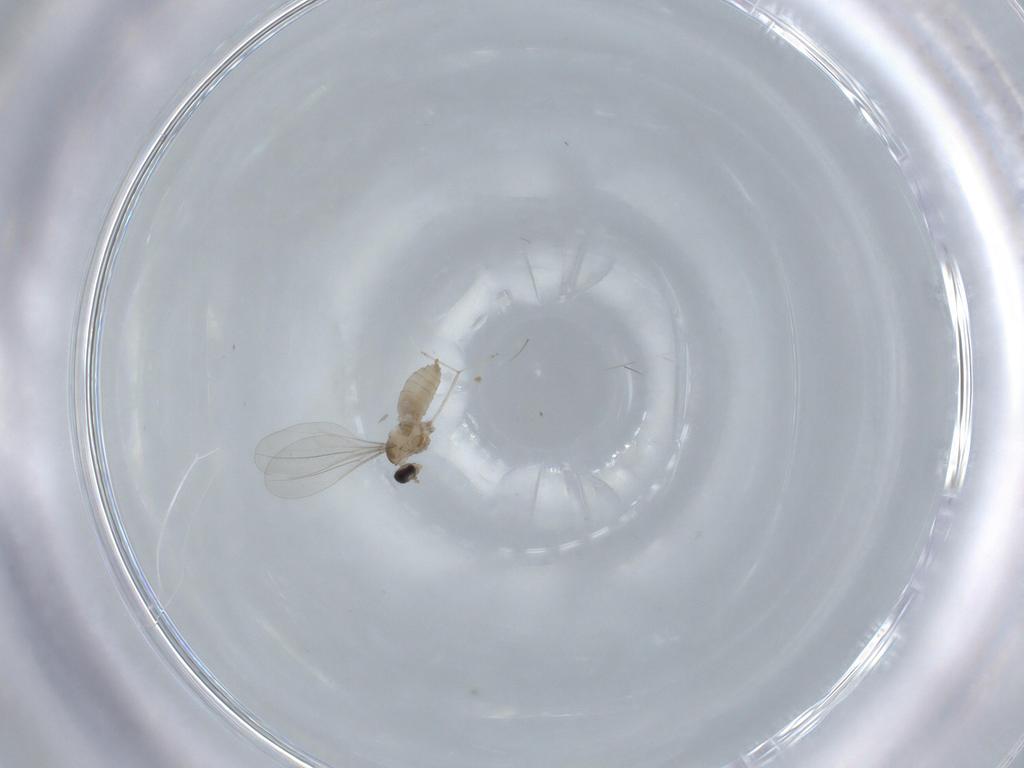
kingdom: Animalia
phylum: Arthropoda
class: Insecta
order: Diptera
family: Cecidomyiidae
